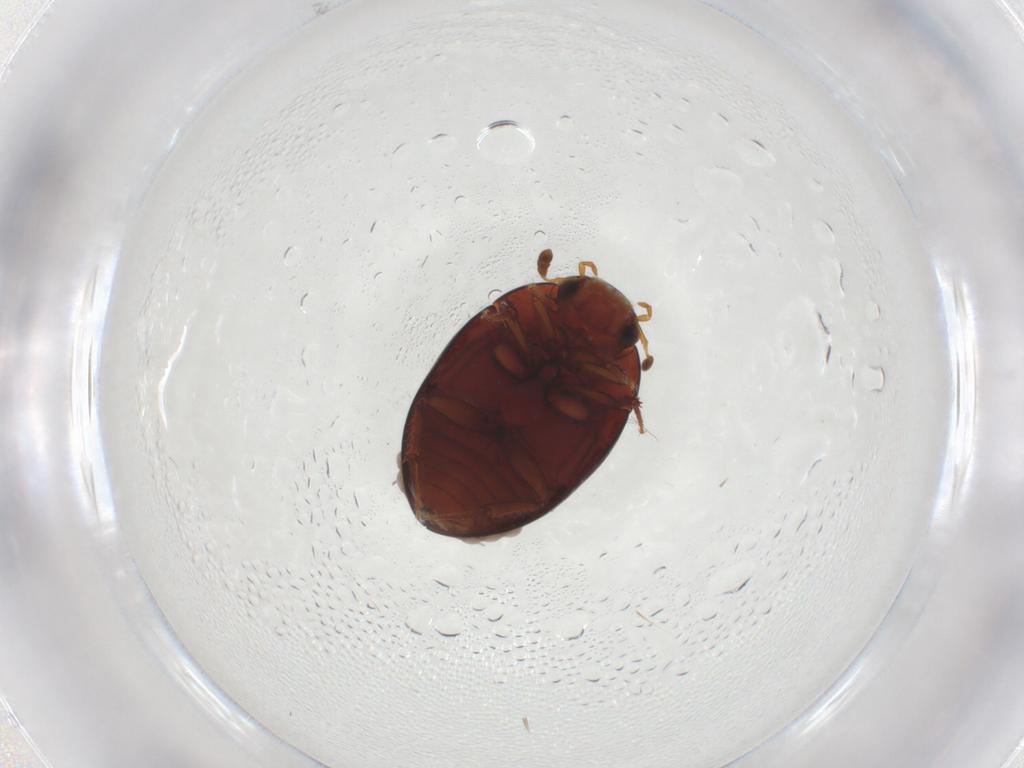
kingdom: Animalia
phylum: Arthropoda
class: Insecta
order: Coleoptera
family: Hydrophilidae
